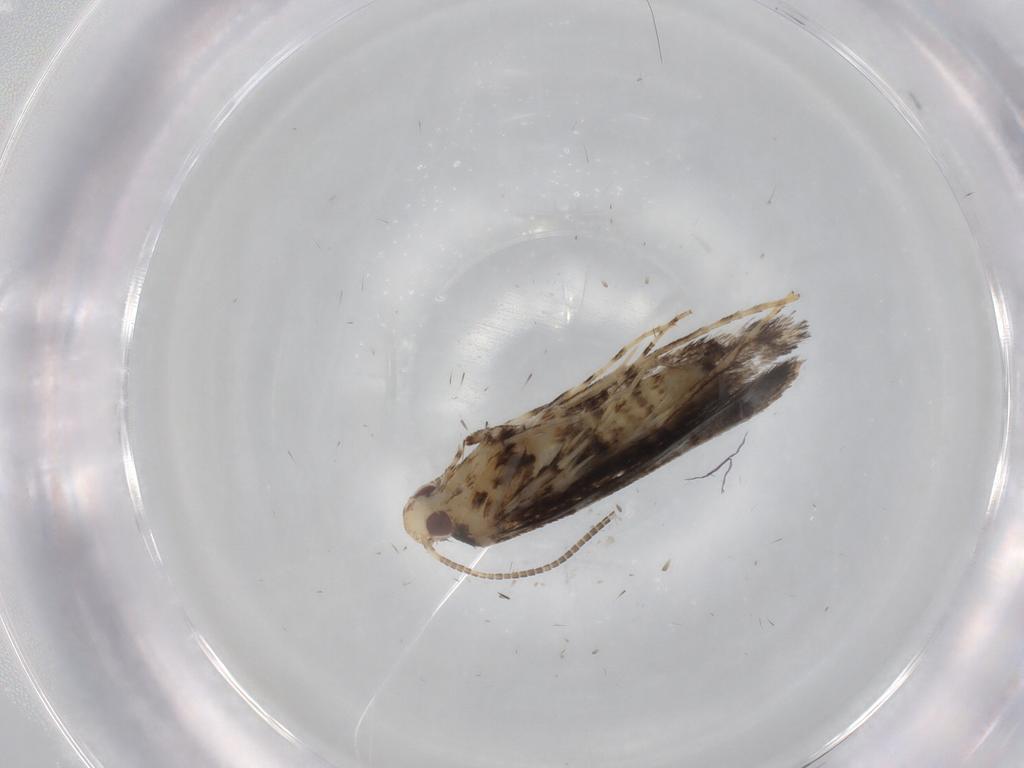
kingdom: Animalia
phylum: Arthropoda
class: Insecta
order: Lepidoptera
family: Gracillariidae
